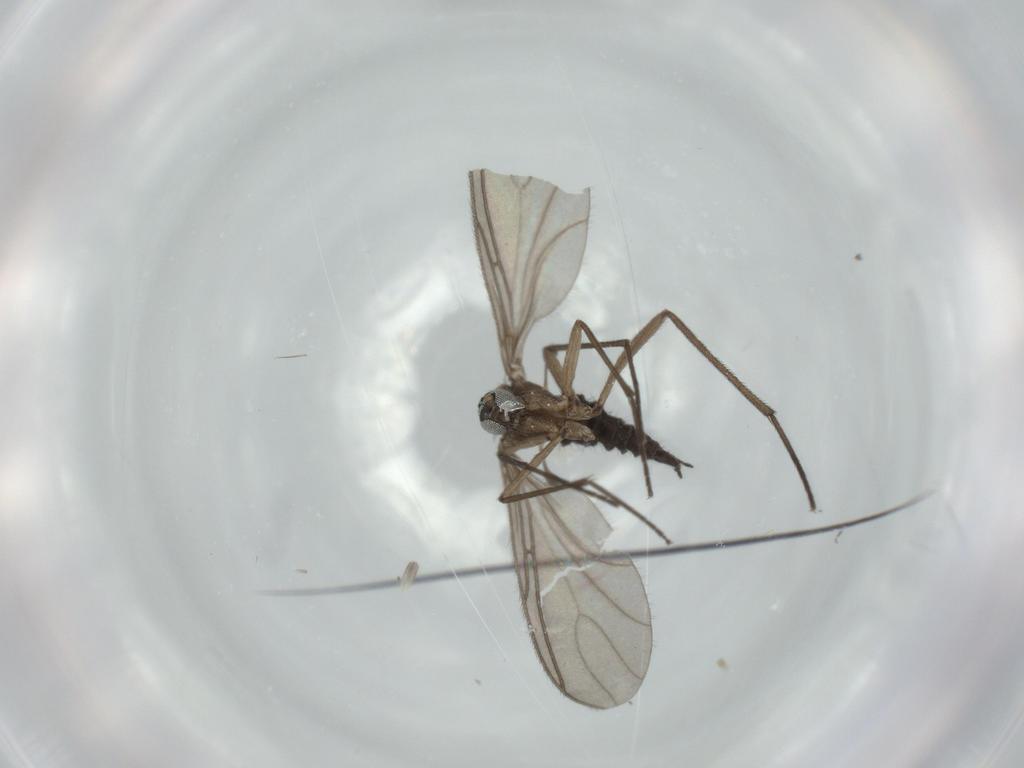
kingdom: Animalia
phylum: Arthropoda
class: Insecta
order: Diptera
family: Sciaridae
